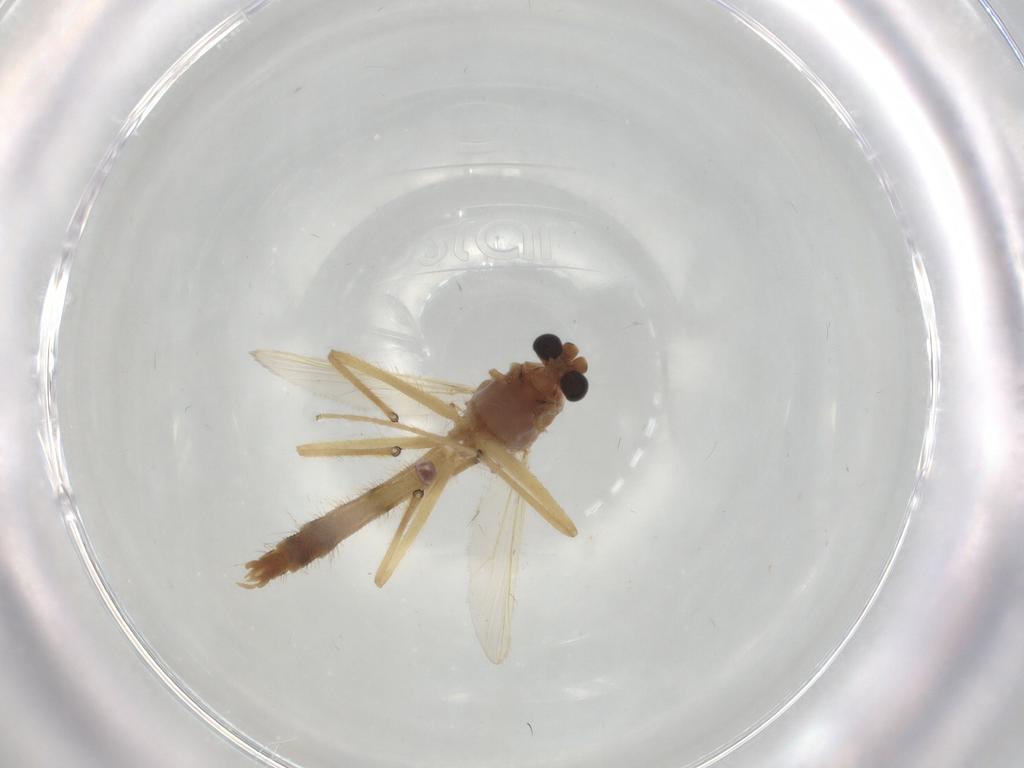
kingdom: Animalia
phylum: Arthropoda
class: Insecta
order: Diptera
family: Chironomidae
